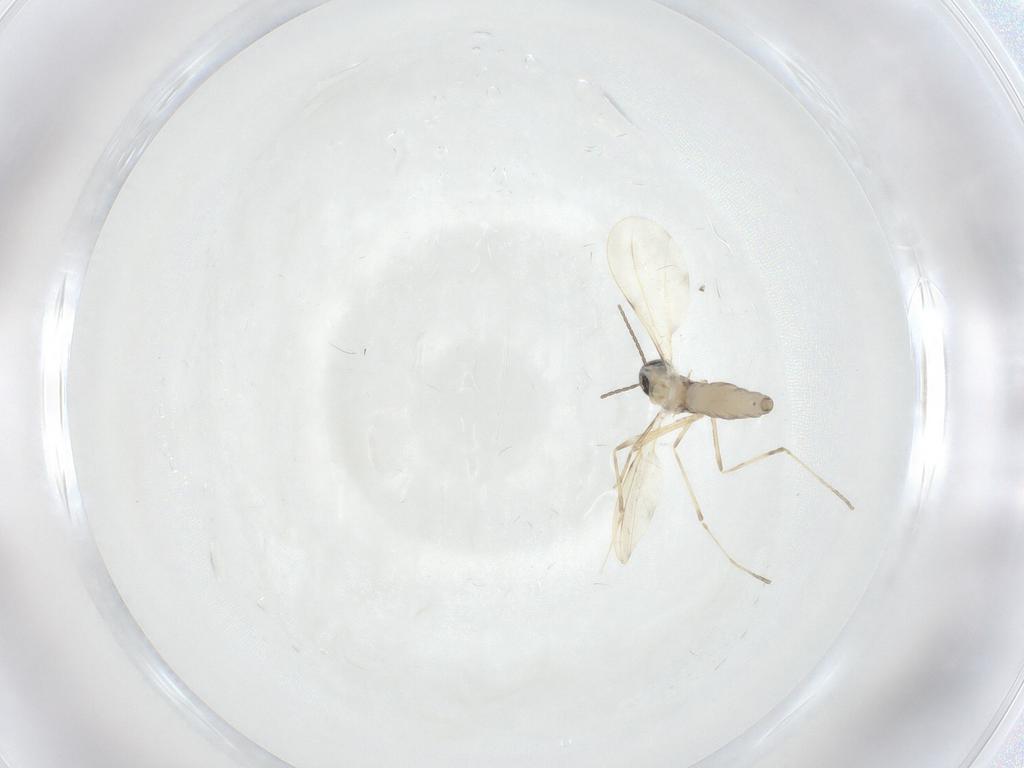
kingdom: Animalia
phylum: Arthropoda
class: Insecta
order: Diptera
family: Cecidomyiidae
